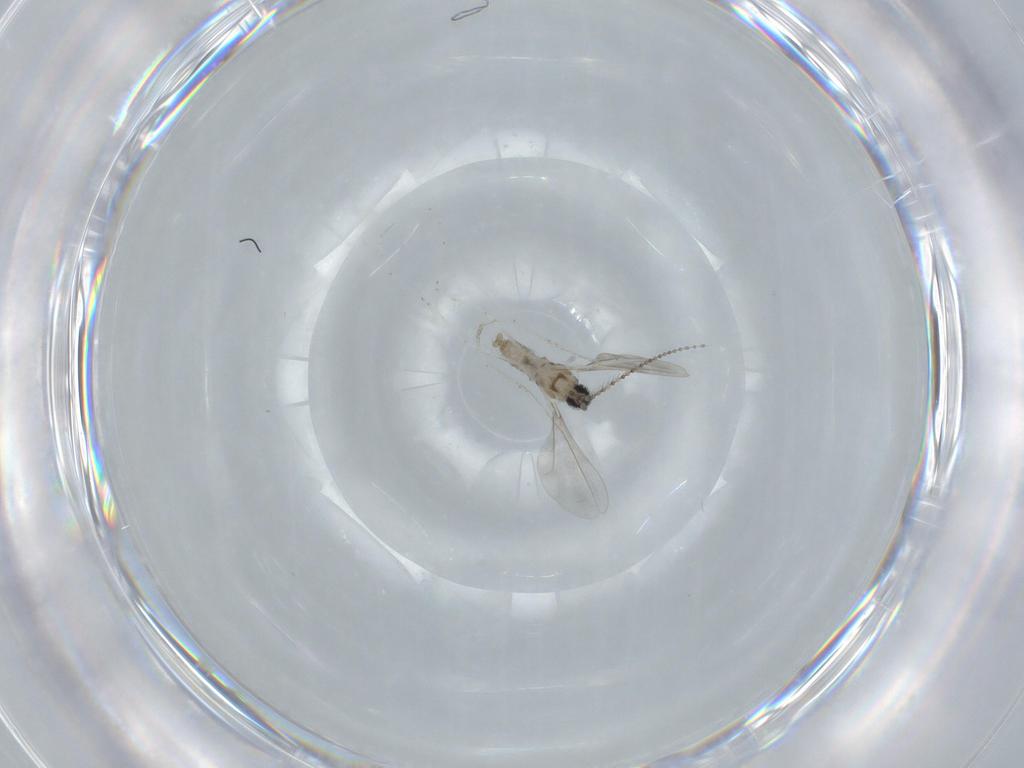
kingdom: Animalia
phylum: Arthropoda
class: Insecta
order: Diptera
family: Cecidomyiidae
